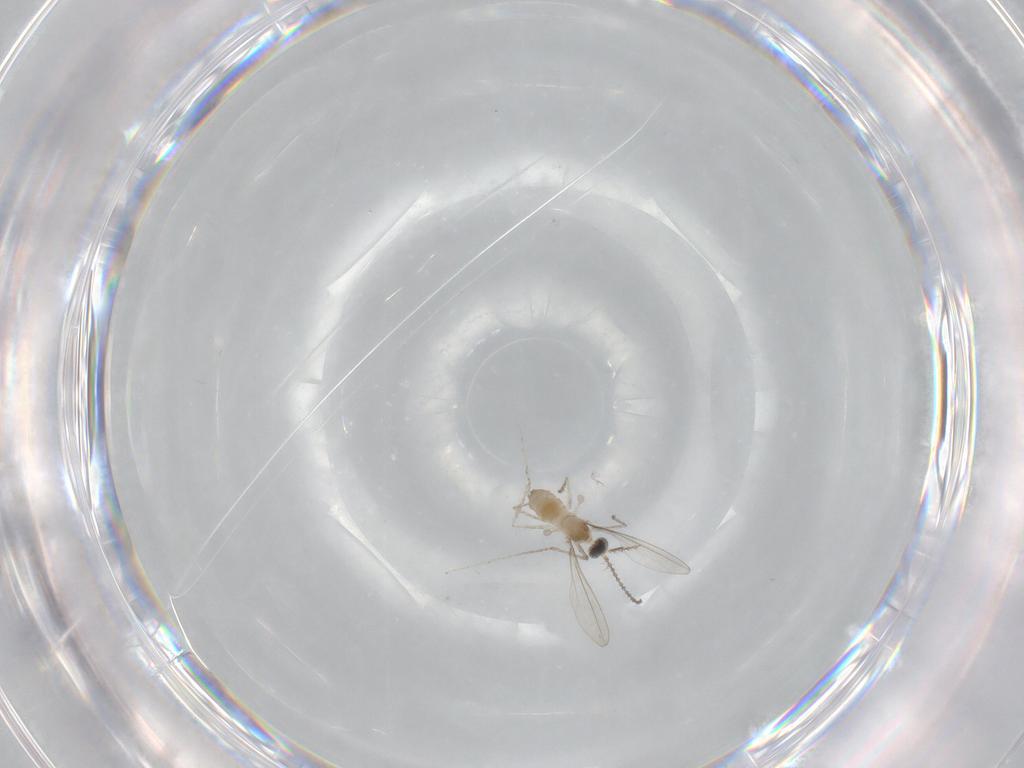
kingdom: Animalia
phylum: Arthropoda
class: Insecta
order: Diptera
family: Cecidomyiidae
